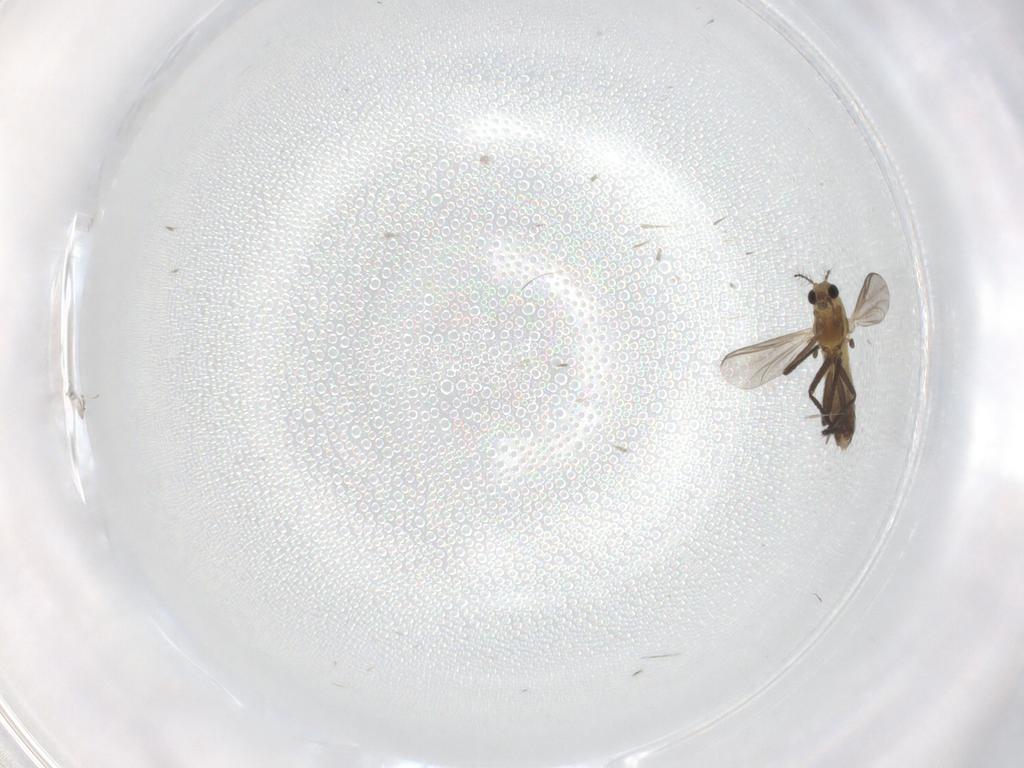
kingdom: Animalia
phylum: Arthropoda
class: Insecta
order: Diptera
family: Chironomidae
